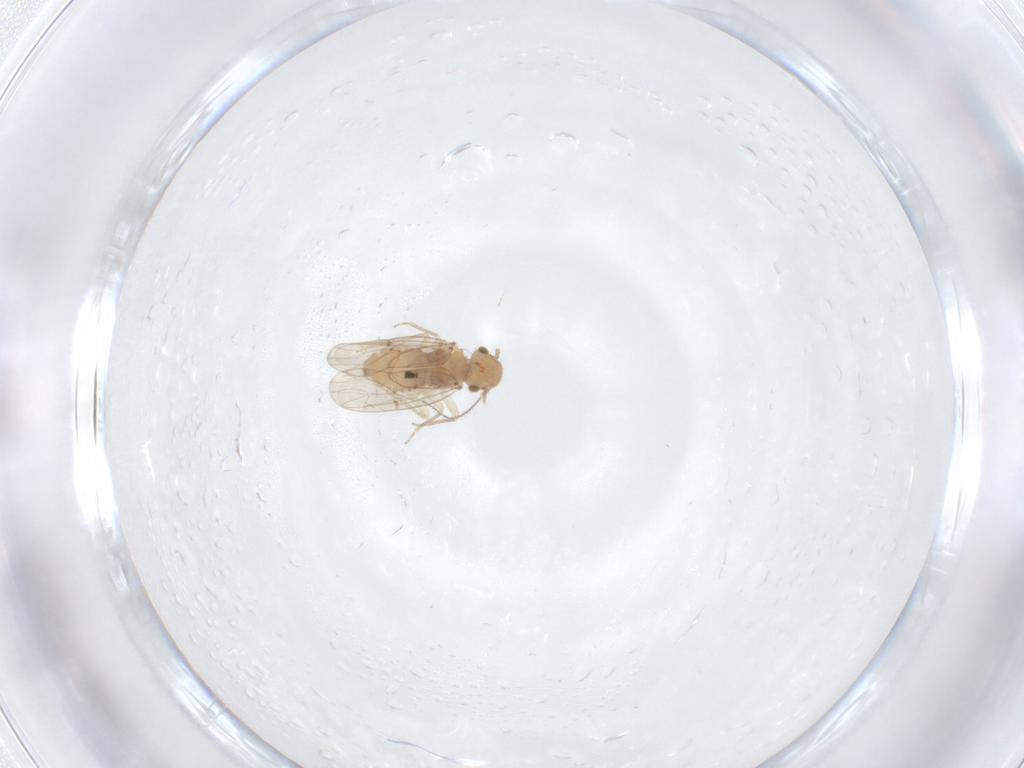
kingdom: Animalia
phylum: Arthropoda
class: Insecta
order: Psocodea
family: Ectopsocidae
